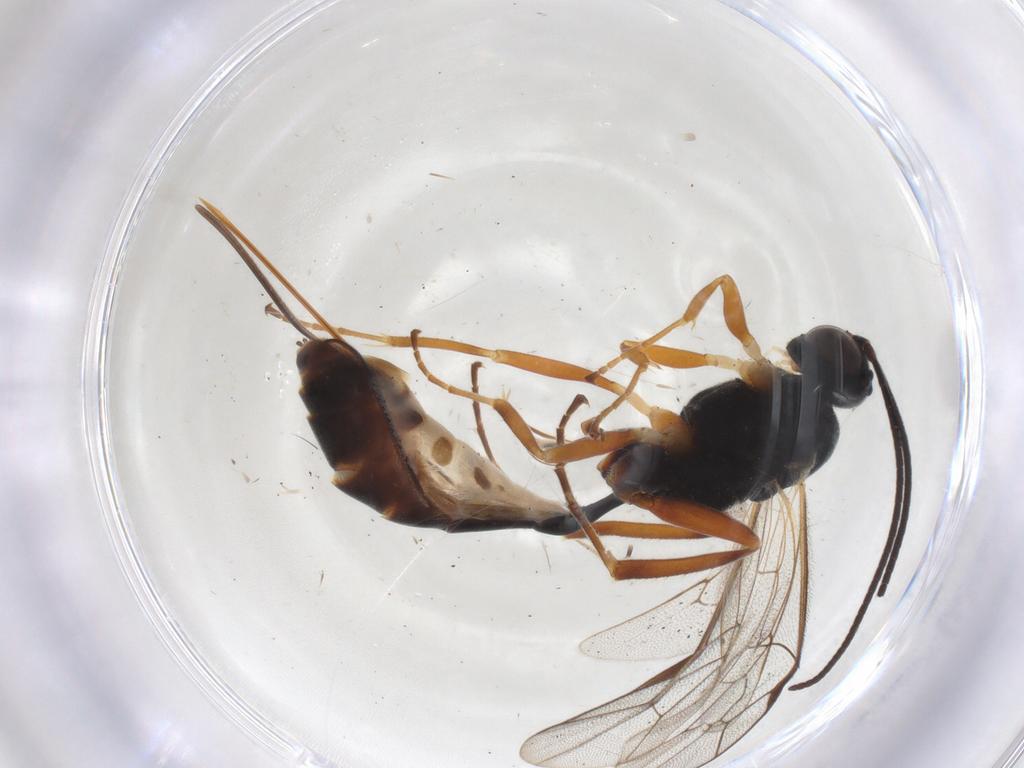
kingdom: Animalia
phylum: Arthropoda
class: Insecta
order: Hymenoptera
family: Ichneumonidae
